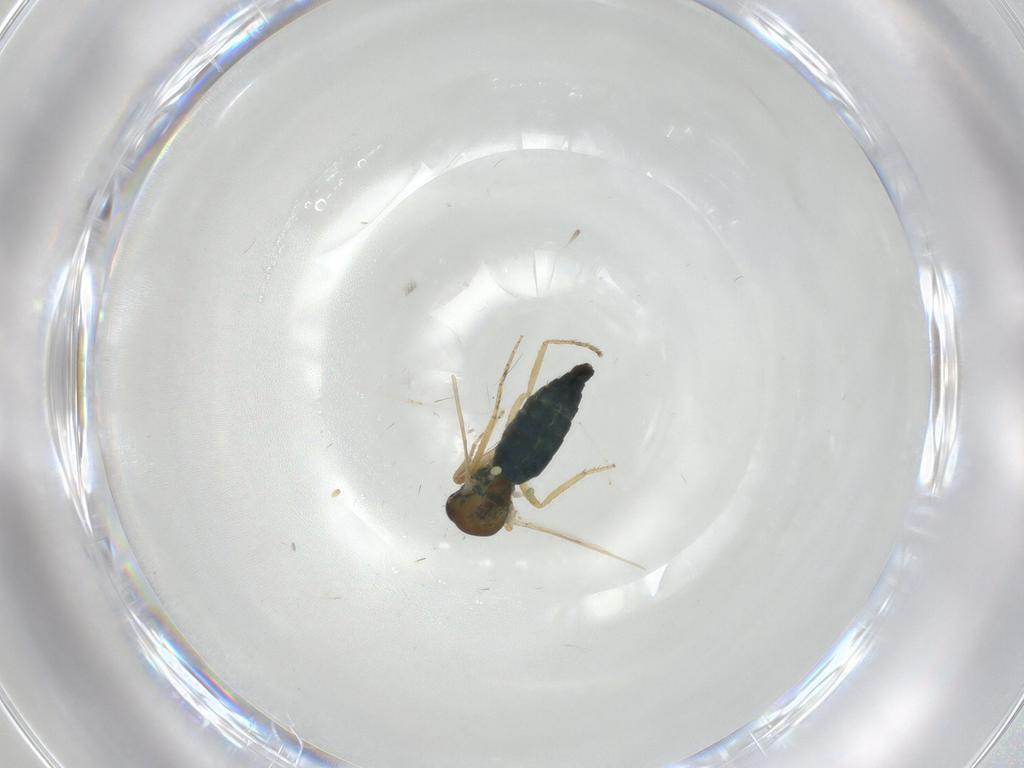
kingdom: Animalia
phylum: Arthropoda
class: Insecta
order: Diptera
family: Ceratopogonidae
